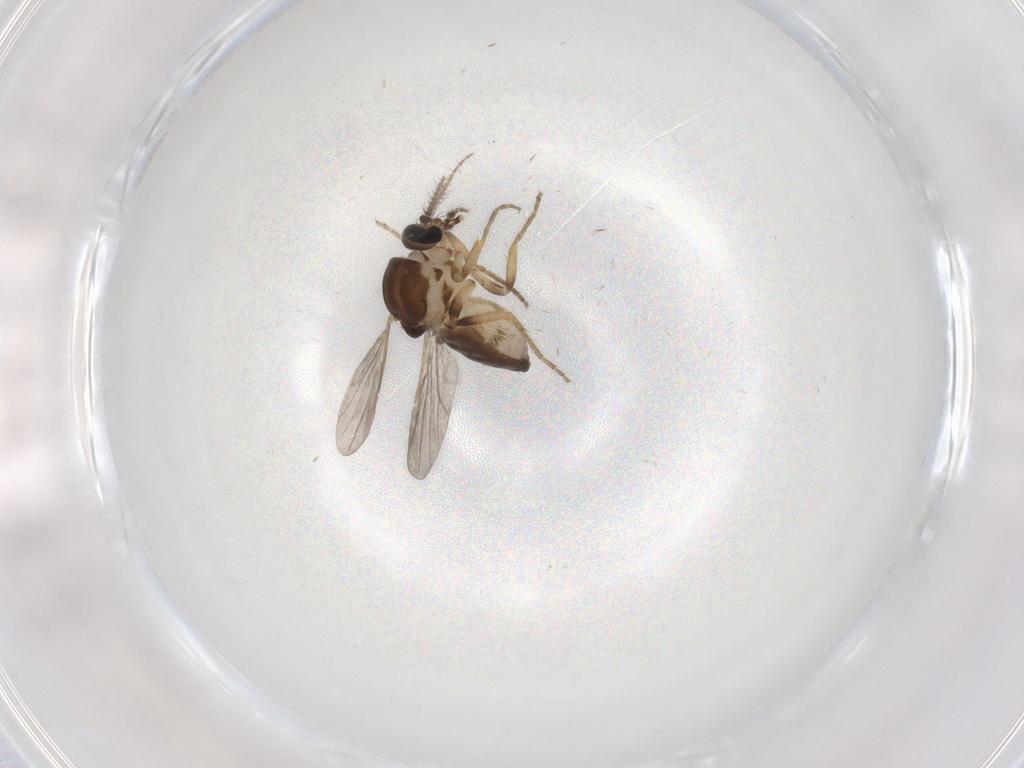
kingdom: Animalia
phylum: Arthropoda
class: Insecta
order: Diptera
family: Ceratopogonidae
